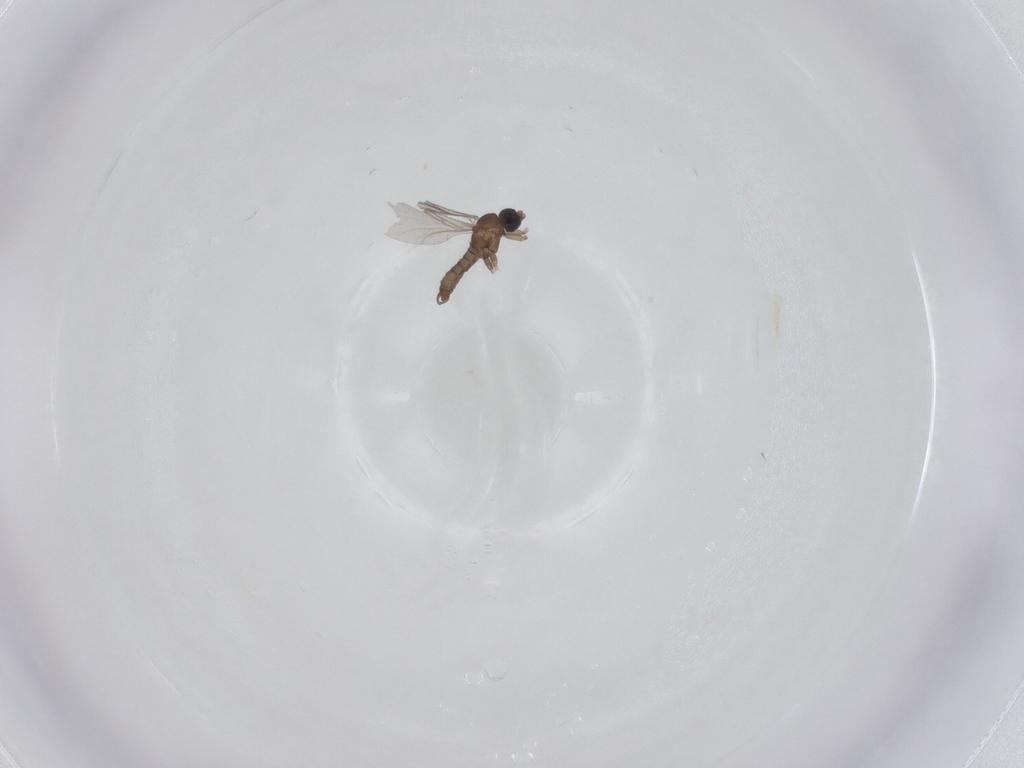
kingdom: Animalia
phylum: Arthropoda
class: Insecta
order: Diptera
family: Sciaridae
